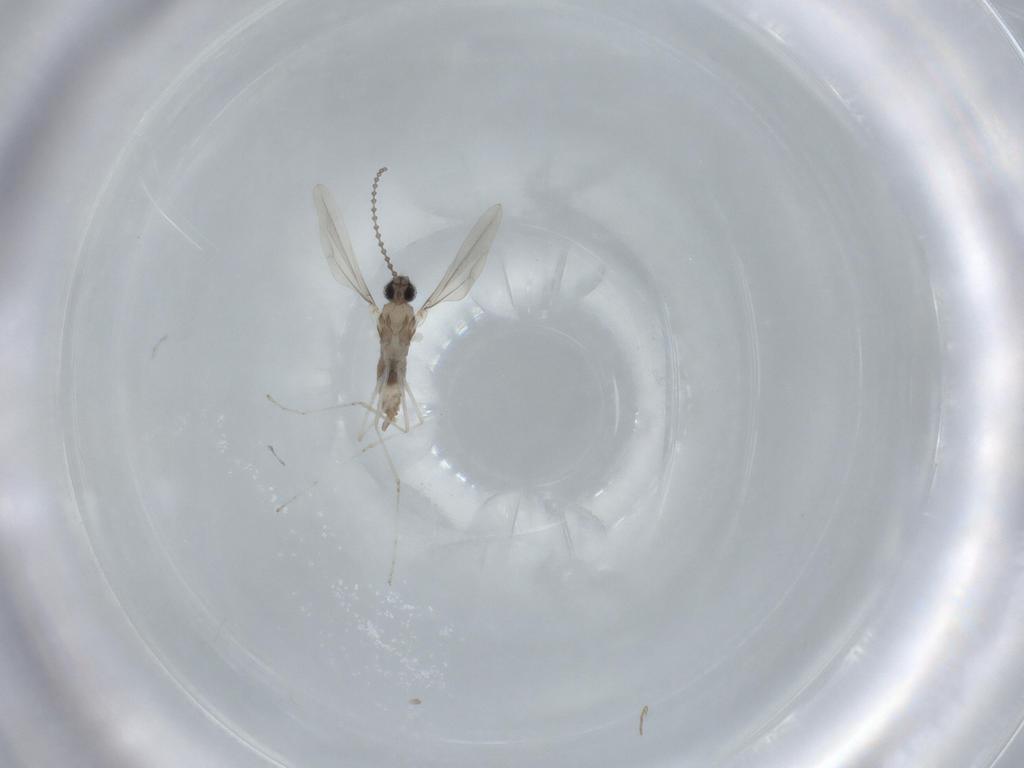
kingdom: Animalia
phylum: Arthropoda
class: Insecta
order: Diptera
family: Cecidomyiidae
